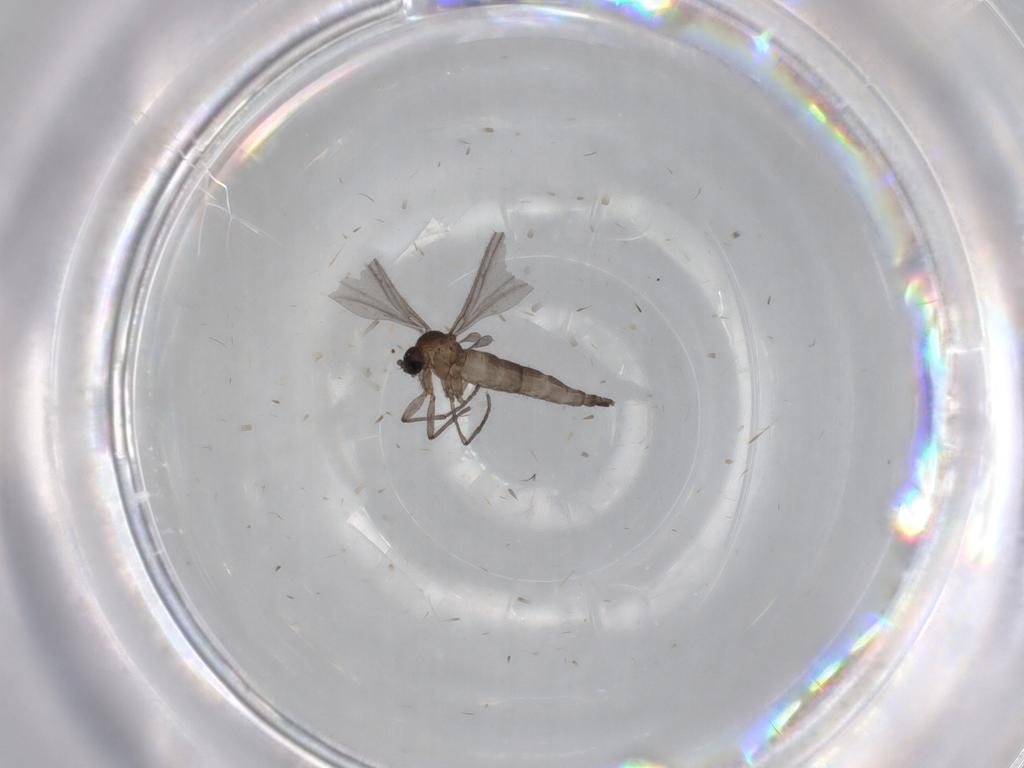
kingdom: Animalia
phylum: Arthropoda
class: Insecta
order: Diptera
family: Sciaridae
